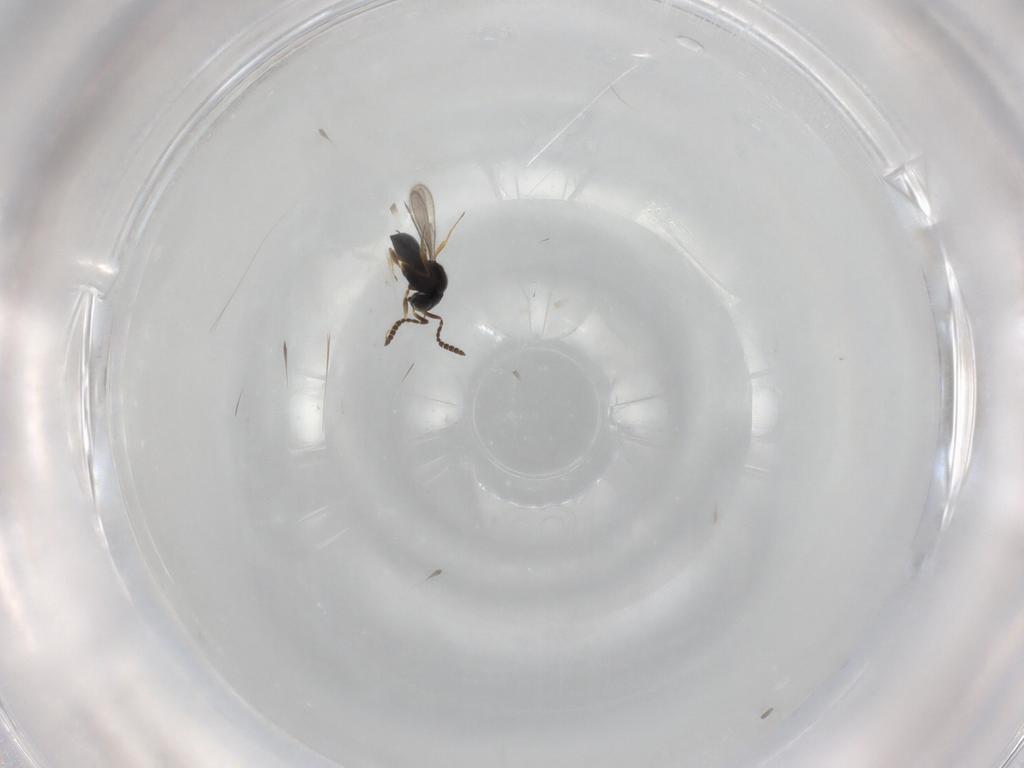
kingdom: Animalia
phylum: Arthropoda
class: Insecta
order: Hymenoptera
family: Scelionidae
